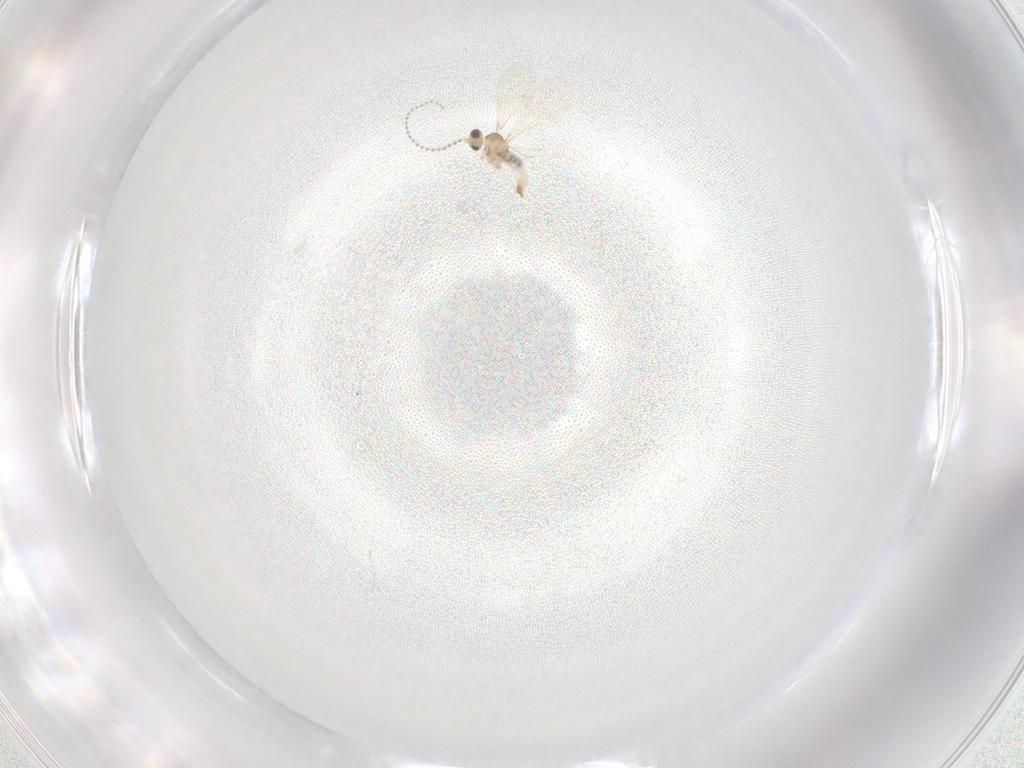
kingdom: Animalia
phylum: Arthropoda
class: Insecta
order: Diptera
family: Cecidomyiidae
